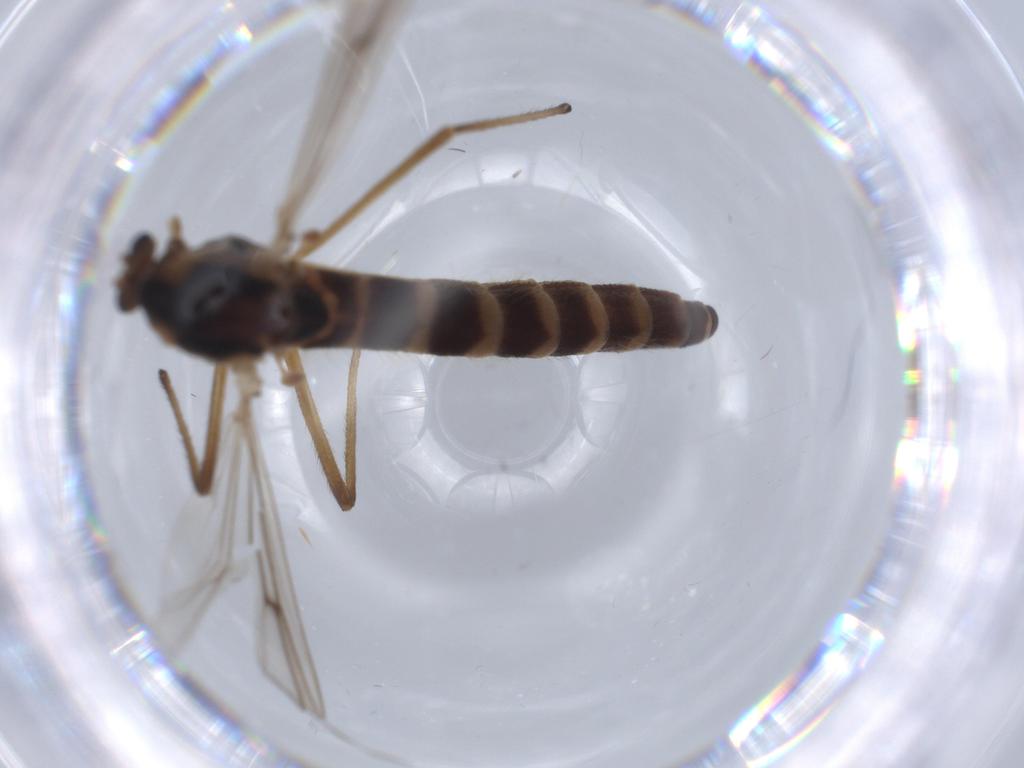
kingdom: Animalia
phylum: Arthropoda
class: Insecta
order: Diptera
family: Chironomidae
